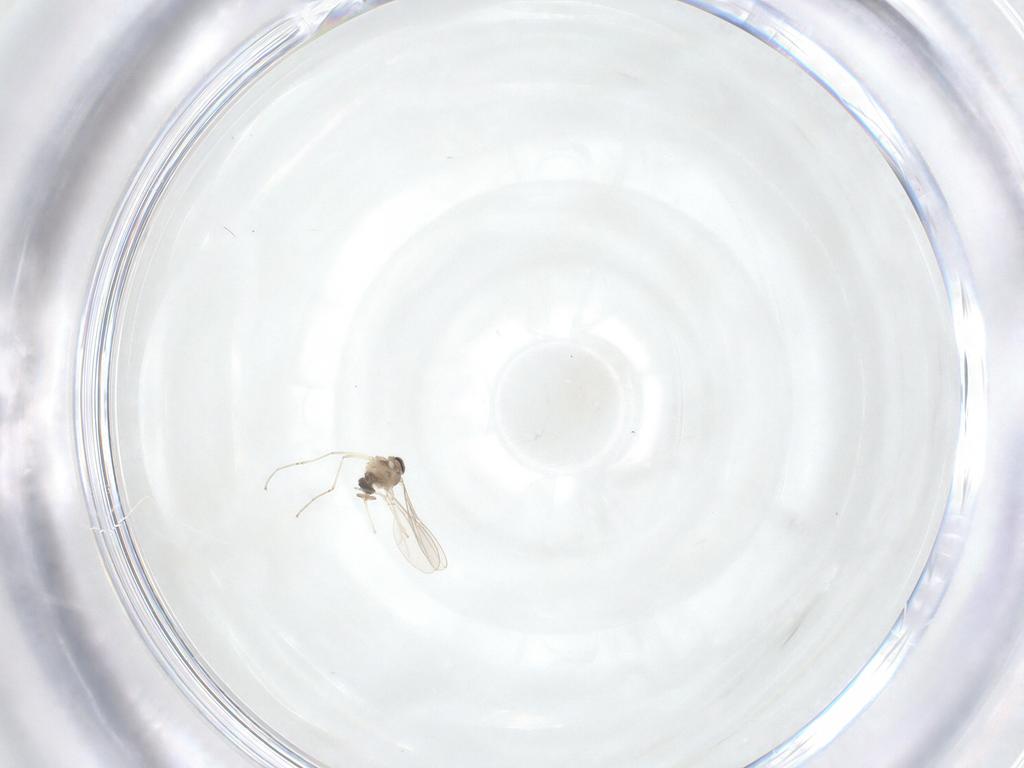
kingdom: Animalia
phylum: Arthropoda
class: Insecta
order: Diptera
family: Cecidomyiidae
